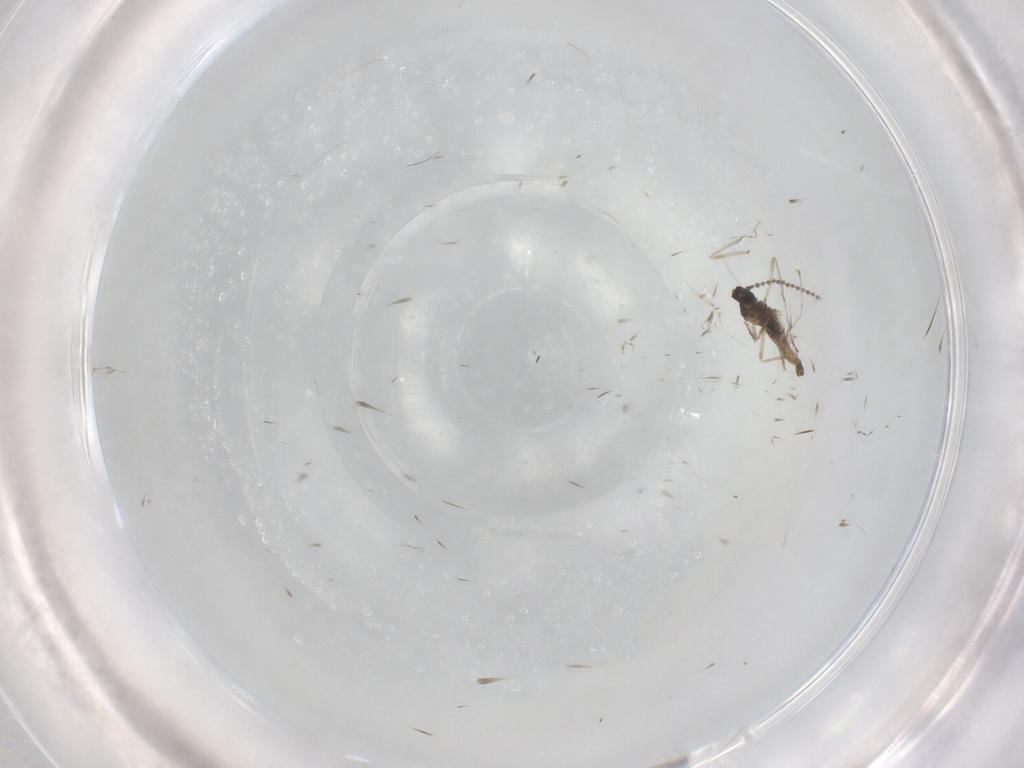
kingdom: Animalia
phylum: Arthropoda
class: Insecta
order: Diptera
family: Cecidomyiidae
